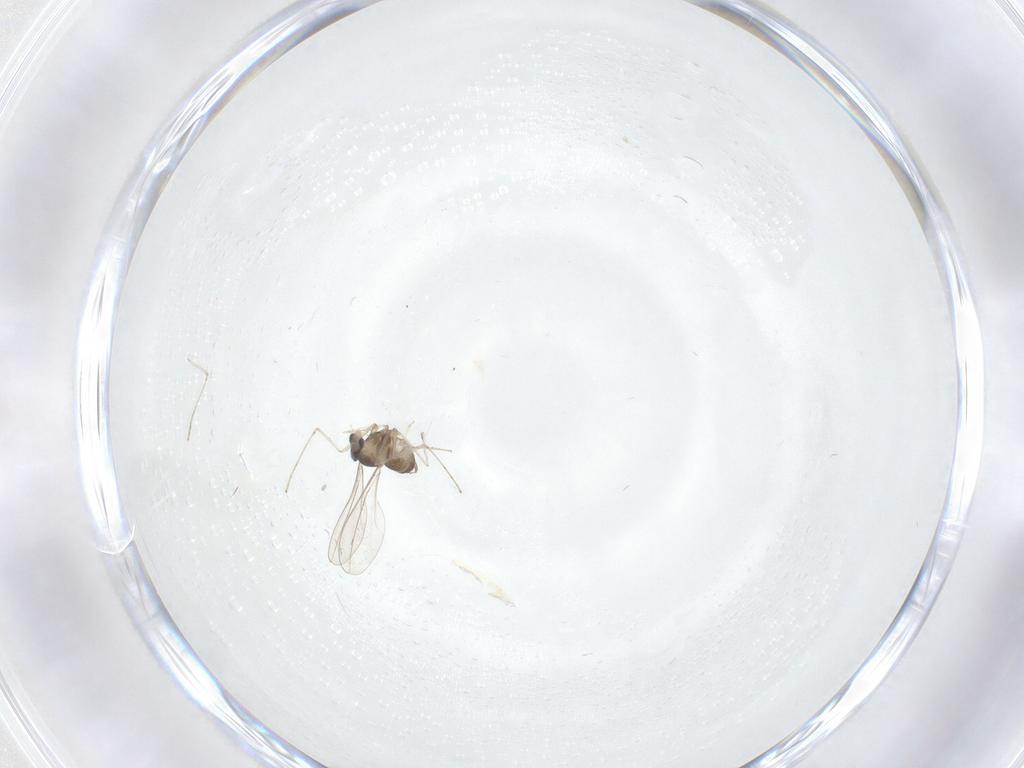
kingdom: Animalia
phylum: Arthropoda
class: Insecta
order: Diptera
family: Cecidomyiidae
